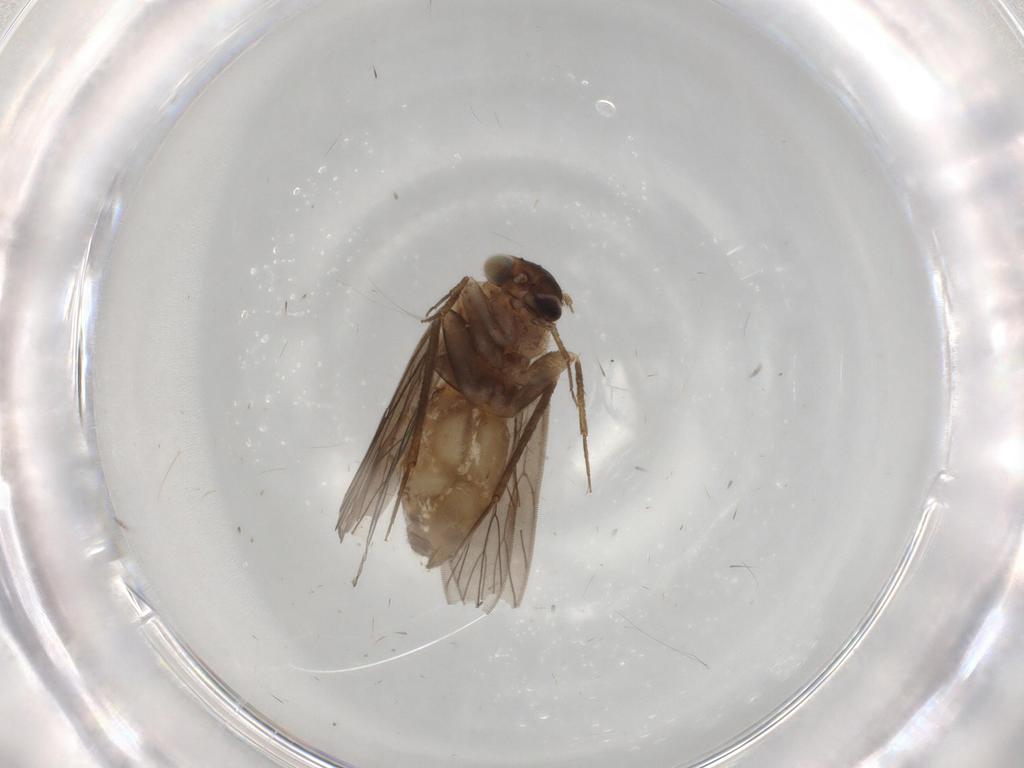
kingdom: Animalia
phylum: Arthropoda
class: Insecta
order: Psocodea
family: Lepidopsocidae
